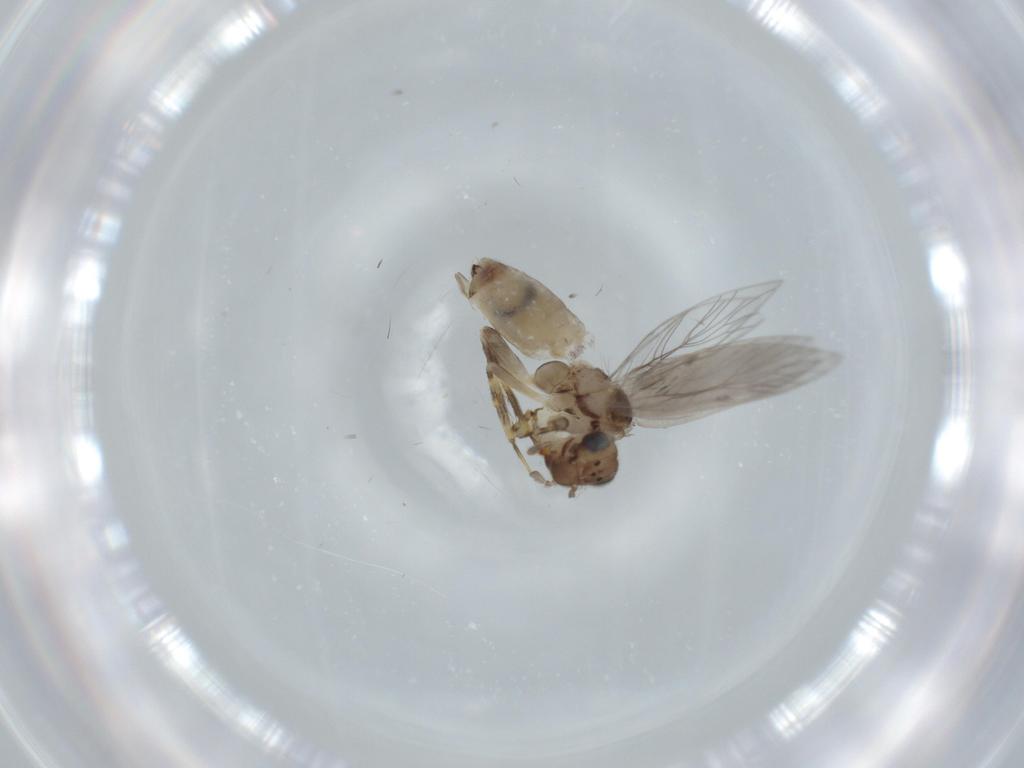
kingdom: Animalia
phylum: Arthropoda
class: Insecta
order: Psocodea
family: Lepidopsocidae
